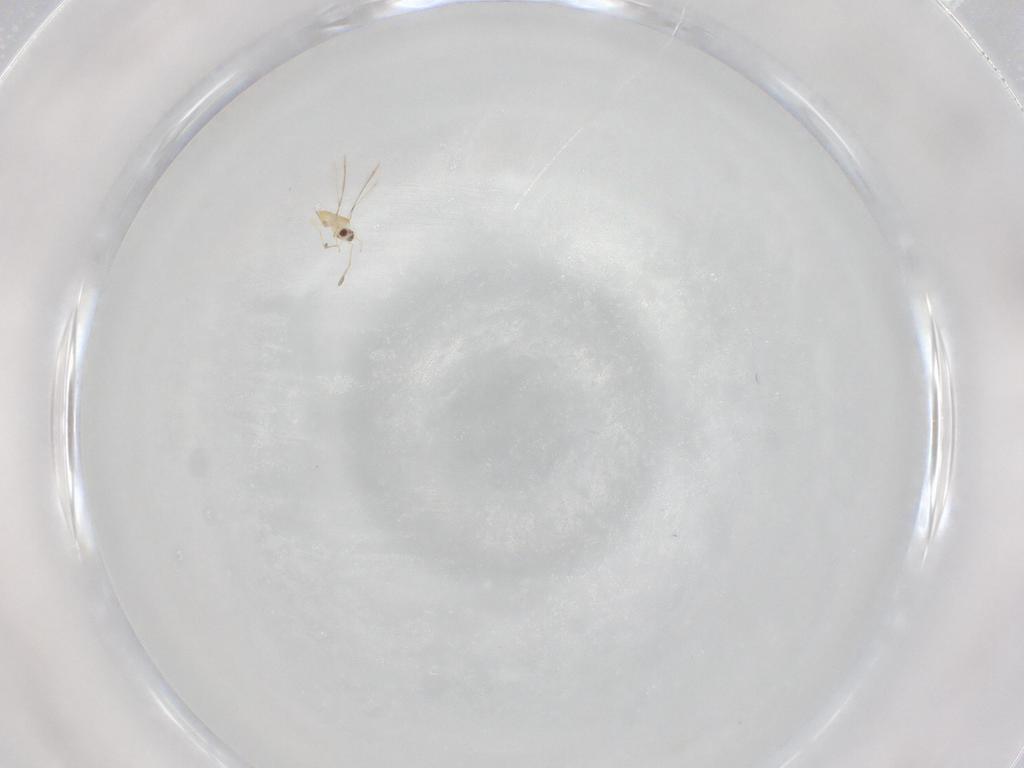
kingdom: Animalia
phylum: Arthropoda
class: Insecta
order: Hymenoptera
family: Mymaridae
